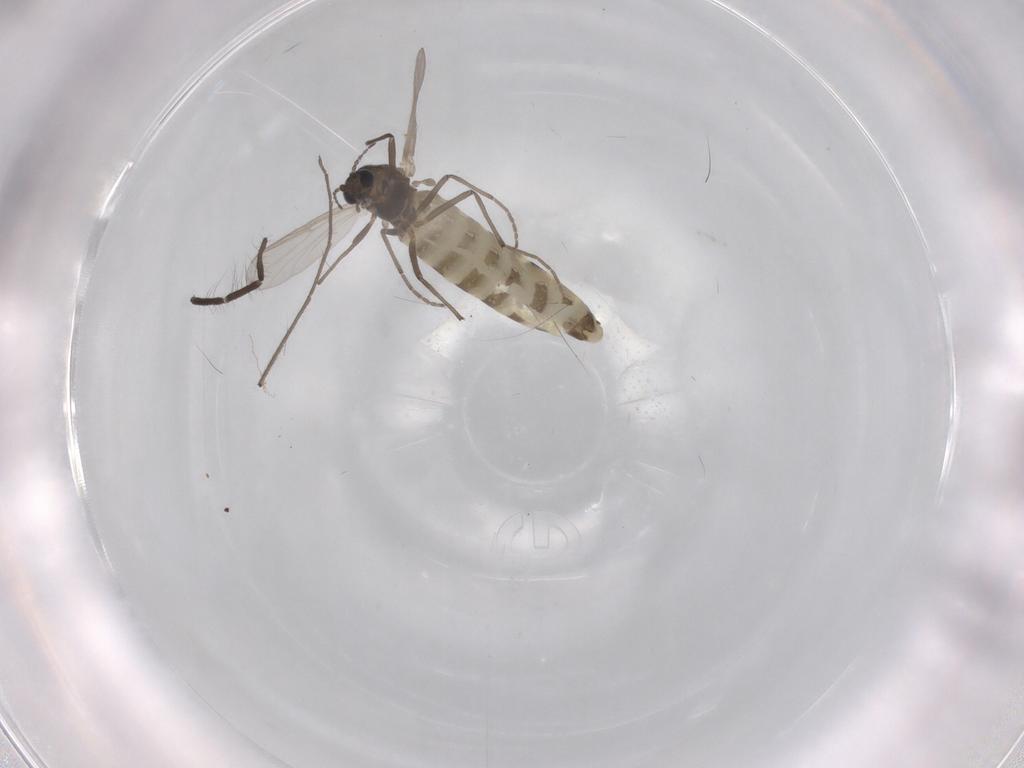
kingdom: Animalia
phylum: Arthropoda
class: Insecta
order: Diptera
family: Chironomidae
